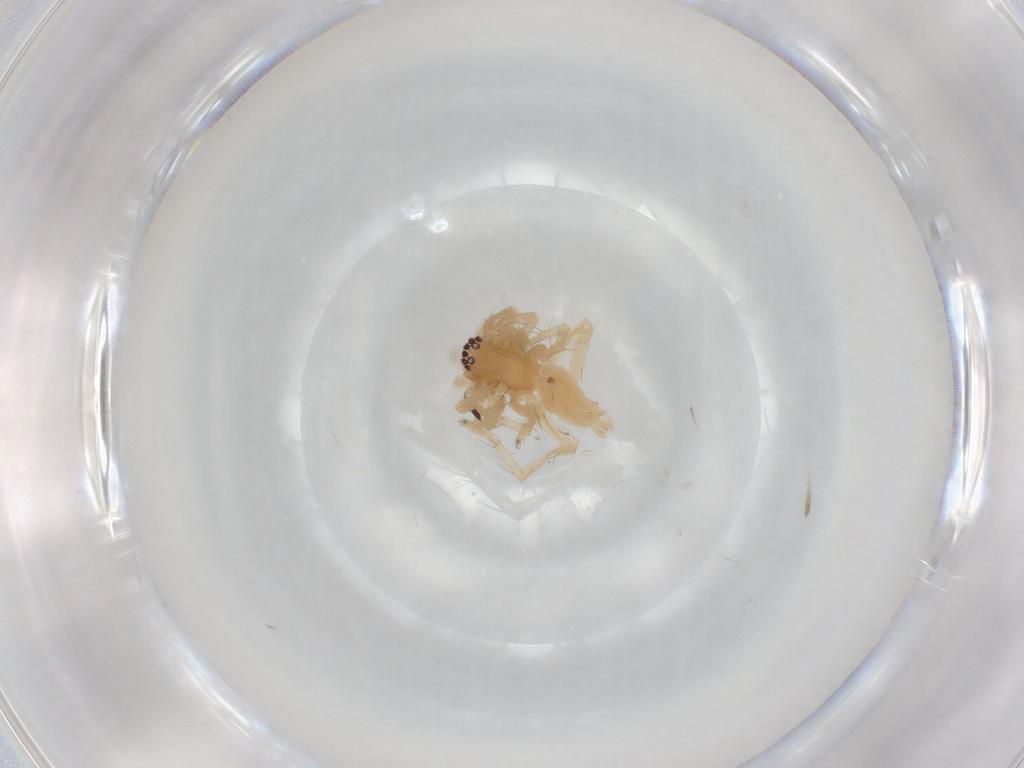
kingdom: Animalia
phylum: Arthropoda
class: Arachnida
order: Araneae
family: Clubionidae
